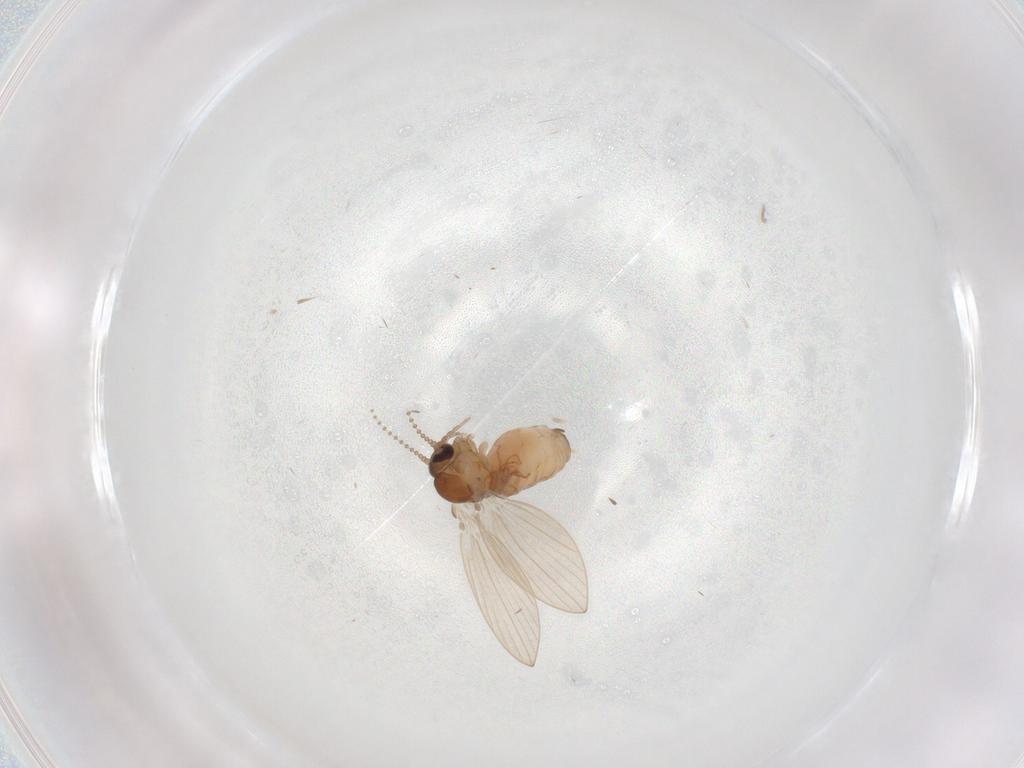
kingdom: Animalia
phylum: Arthropoda
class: Insecta
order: Diptera
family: Psychodidae
